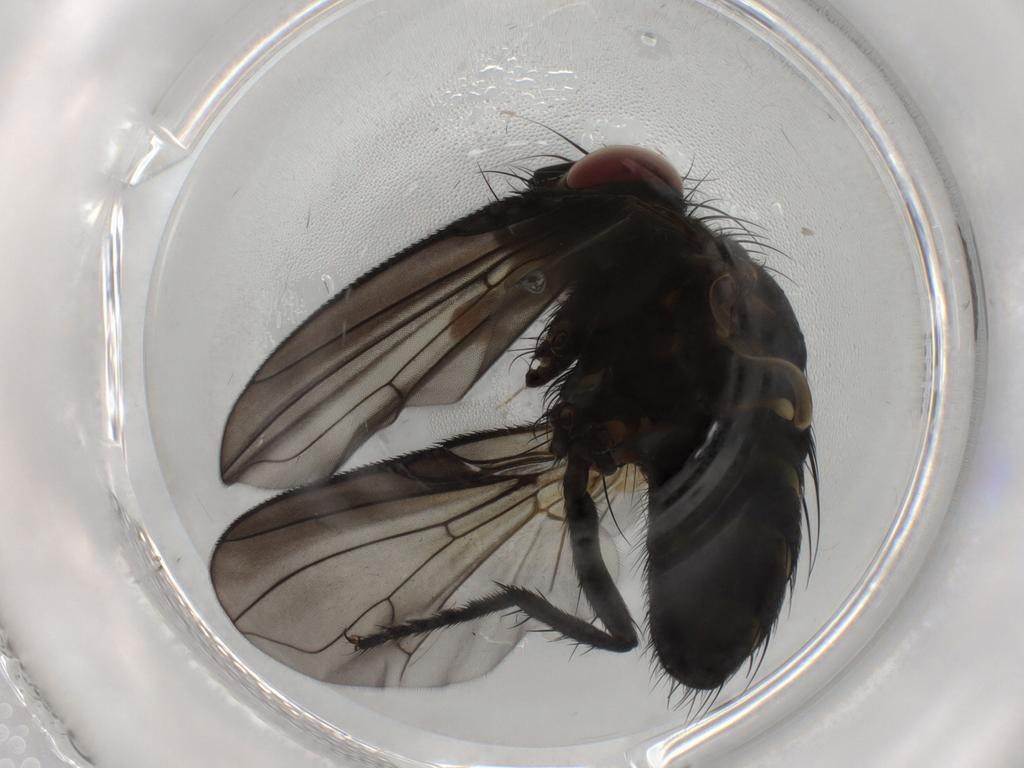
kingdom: Animalia
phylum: Arthropoda
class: Insecta
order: Diptera
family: Chironomidae
